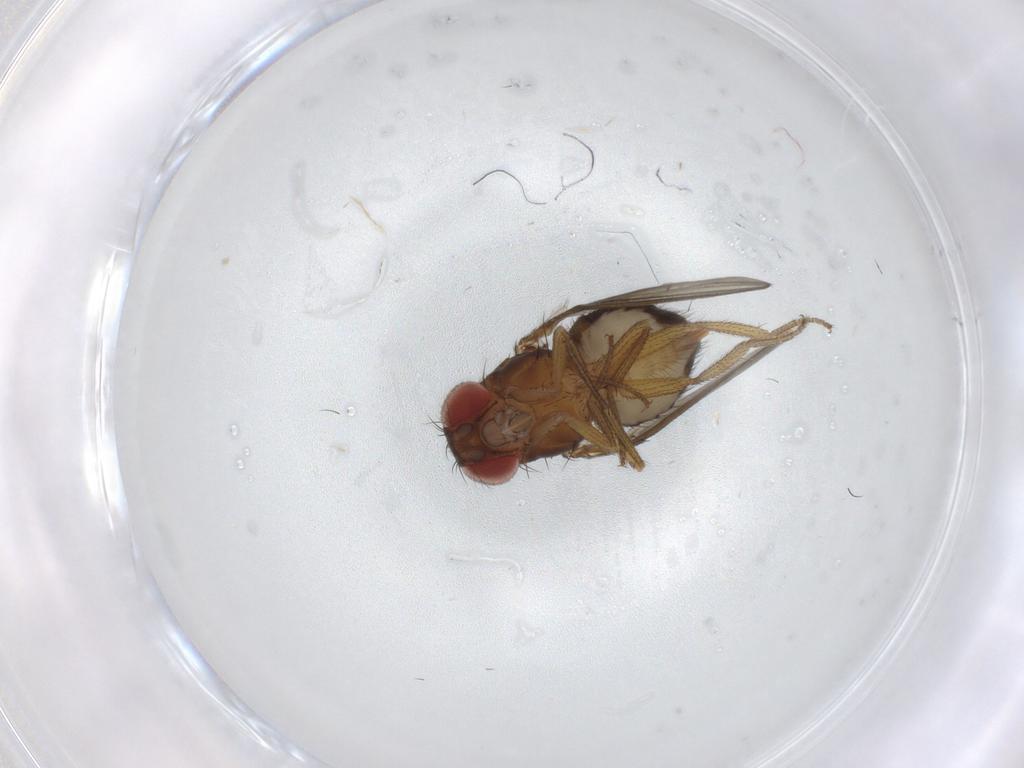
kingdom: Animalia
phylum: Arthropoda
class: Insecta
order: Diptera
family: Drosophilidae
